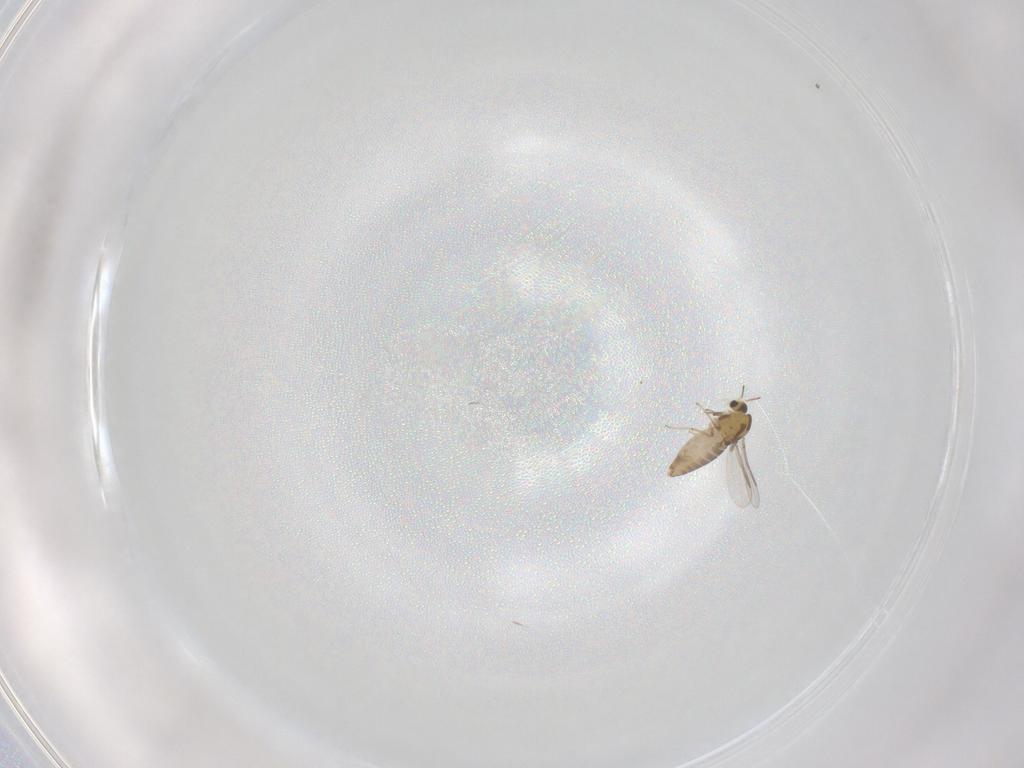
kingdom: Animalia
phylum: Arthropoda
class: Insecta
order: Diptera
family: Chironomidae
